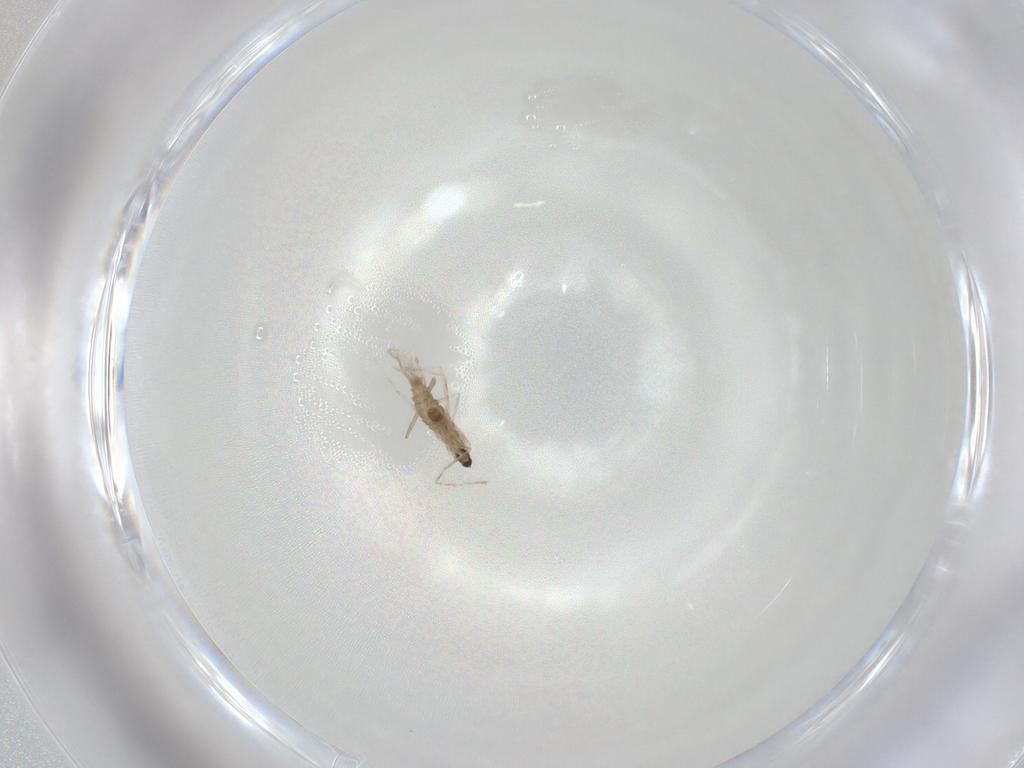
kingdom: Animalia
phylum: Arthropoda
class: Insecta
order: Diptera
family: Cecidomyiidae
